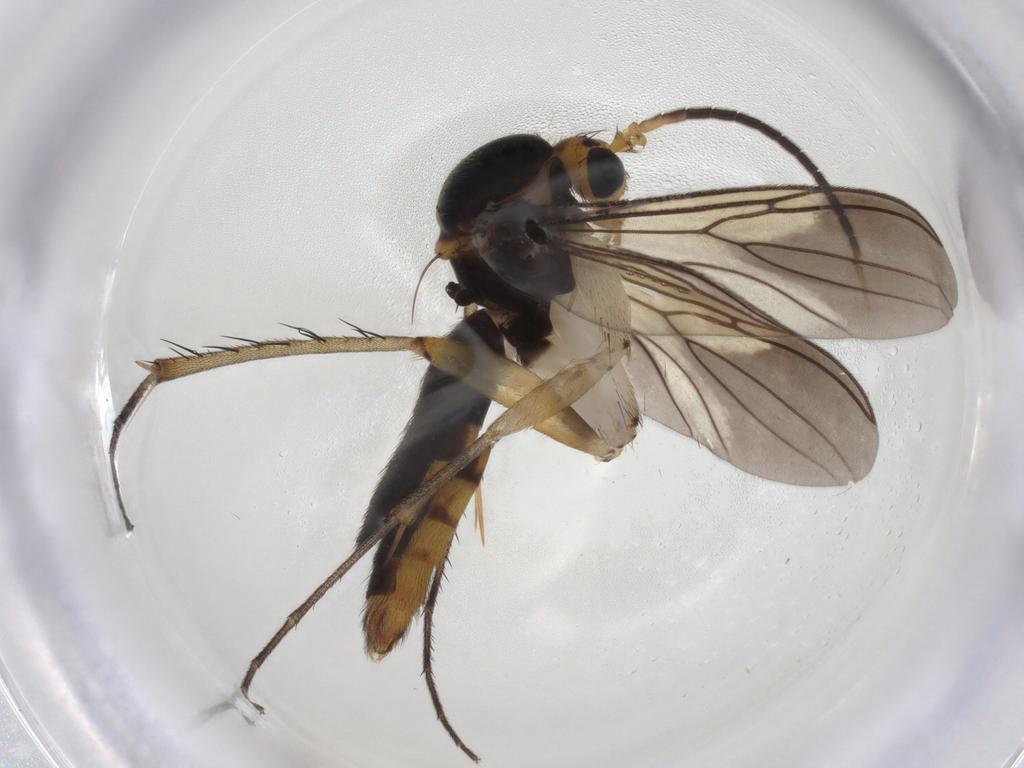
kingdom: Animalia
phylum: Arthropoda
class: Insecta
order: Diptera
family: Mycetophilidae
